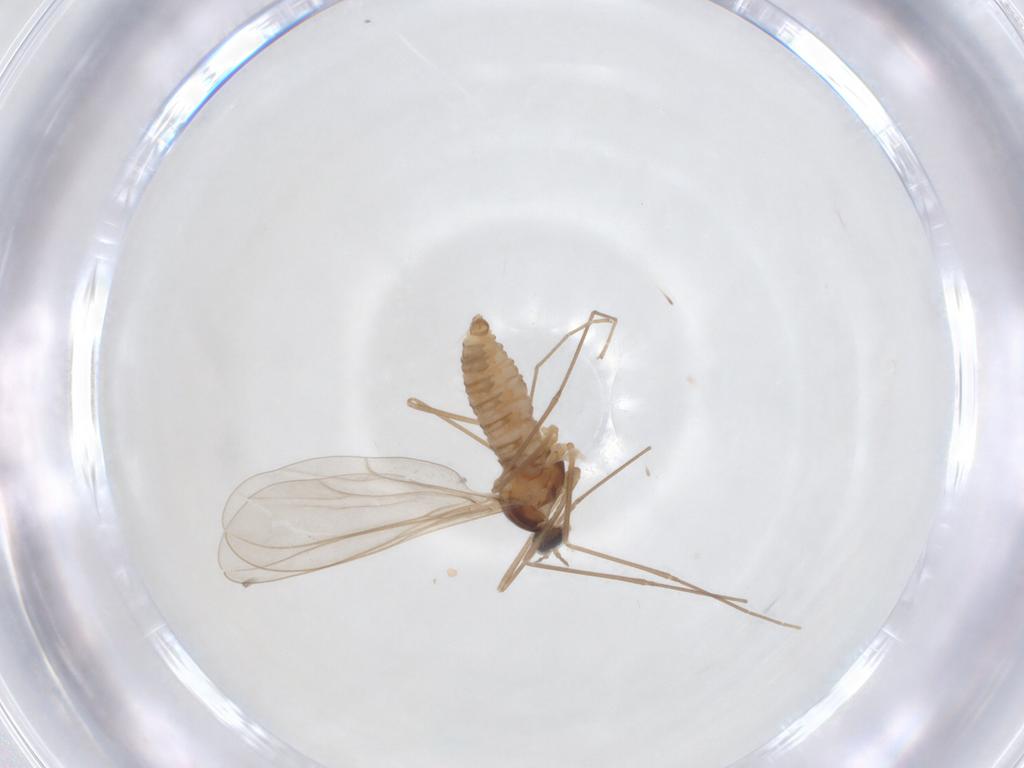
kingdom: Animalia
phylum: Arthropoda
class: Insecta
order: Diptera
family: Cecidomyiidae
